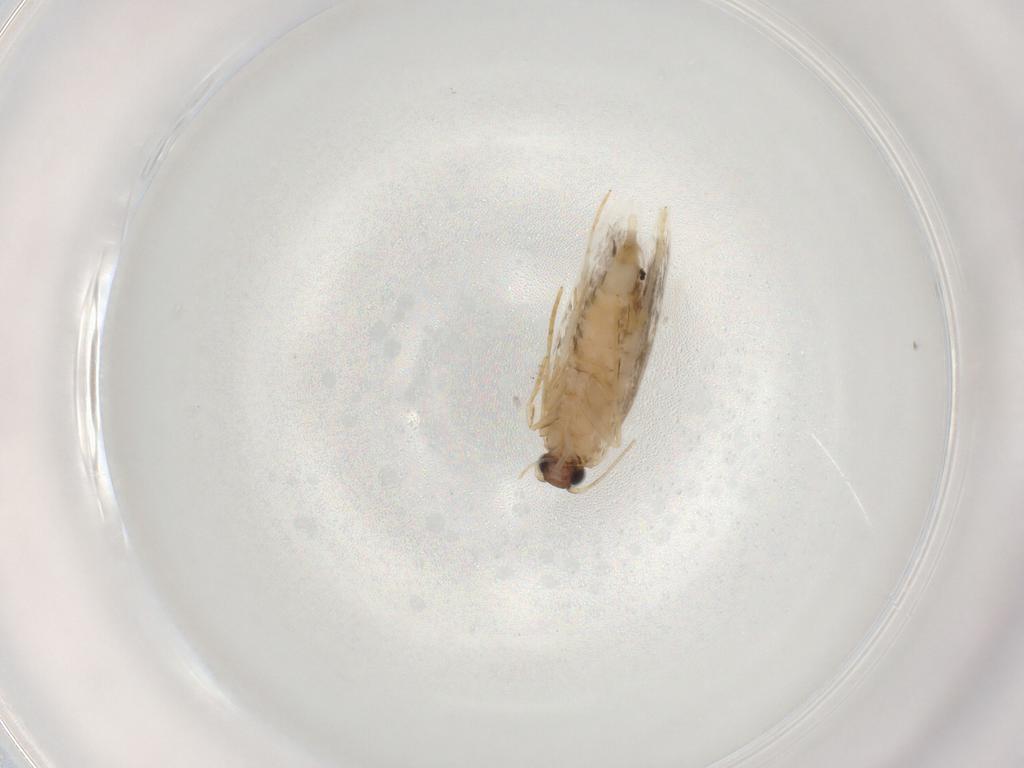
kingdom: Animalia
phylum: Arthropoda
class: Insecta
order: Lepidoptera
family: Tineidae
